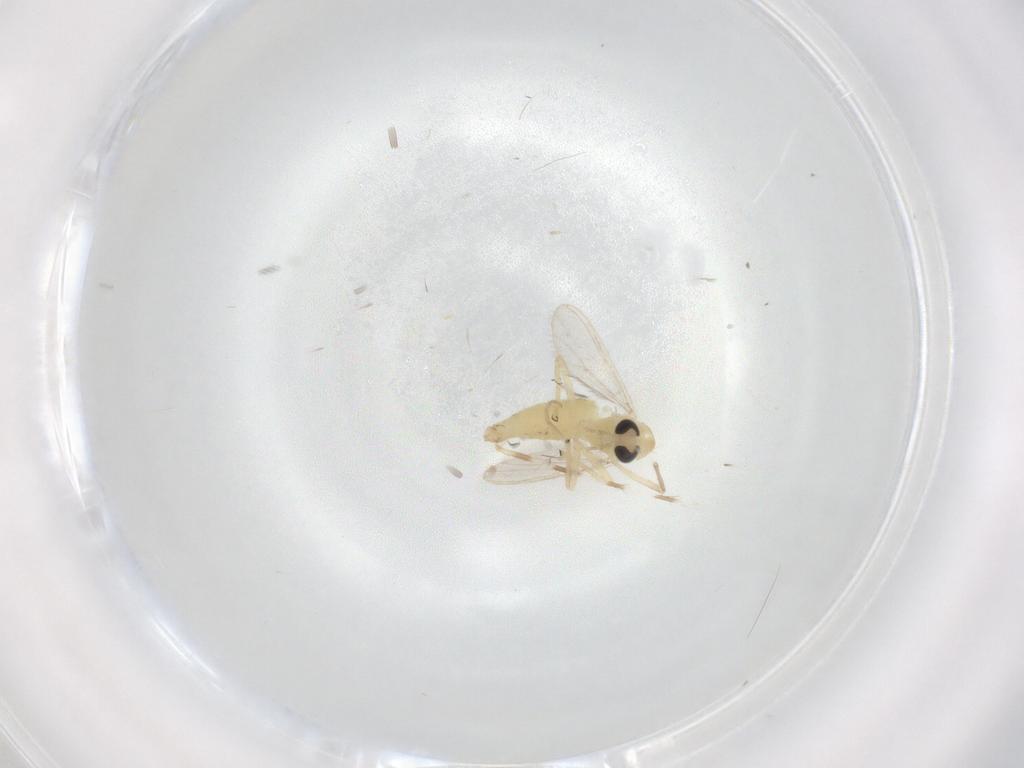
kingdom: Animalia
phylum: Arthropoda
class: Insecta
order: Diptera
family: Chironomidae
